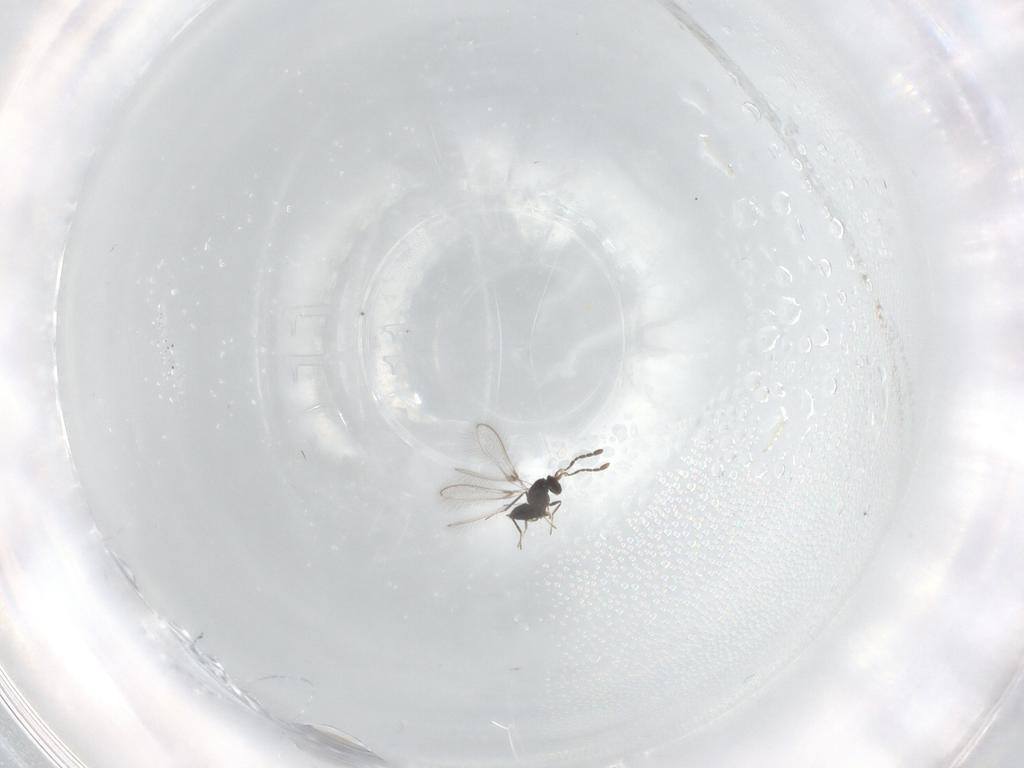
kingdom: Animalia
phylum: Arthropoda
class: Insecta
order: Hymenoptera
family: Mymaridae
